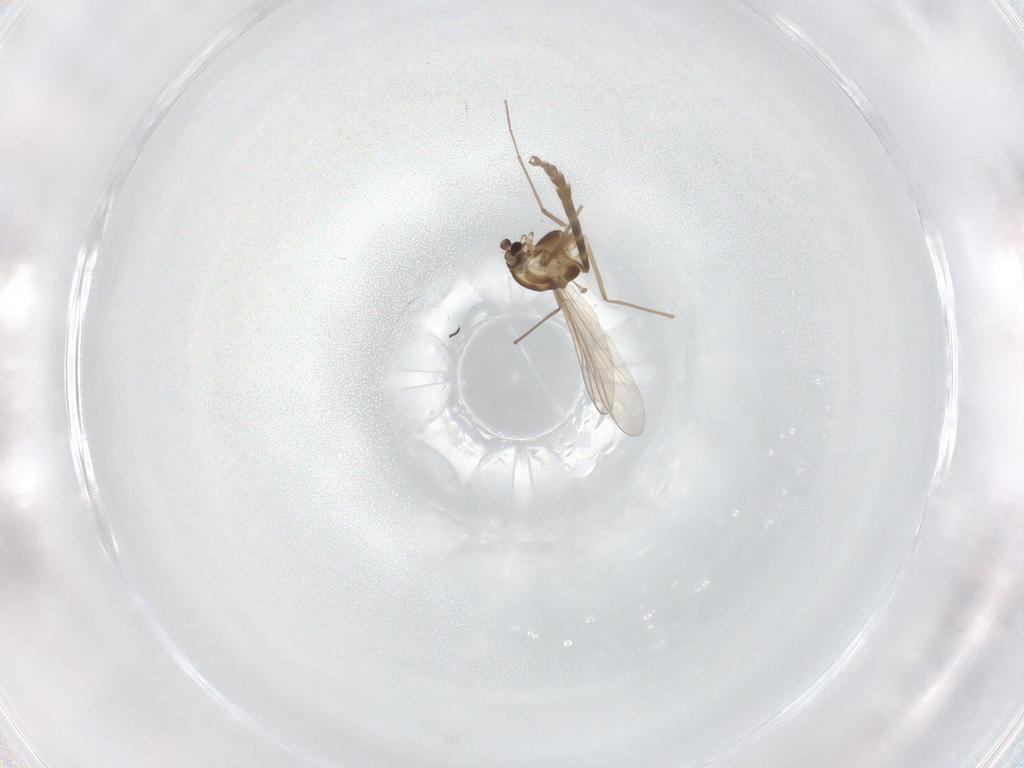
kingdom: Animalia
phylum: Arthropoda
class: Insecta
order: Diptera
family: Chironomidae
